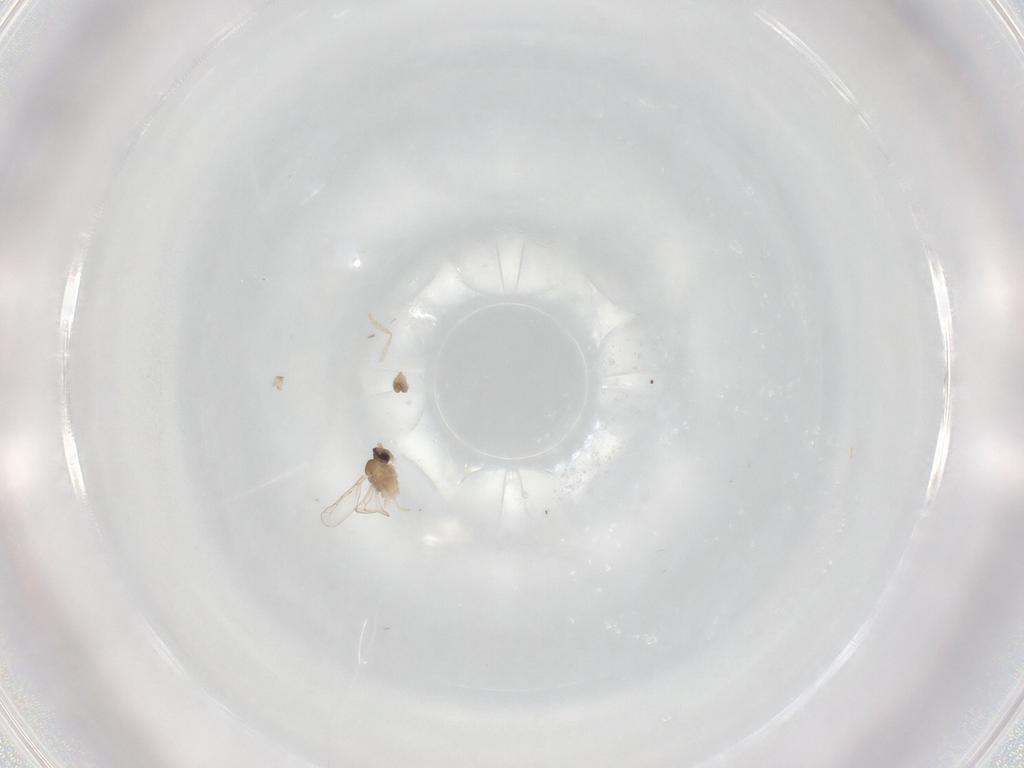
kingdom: Animalia
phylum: Arthropoda
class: Insecta
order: Diptera
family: Cecidomyiidae
